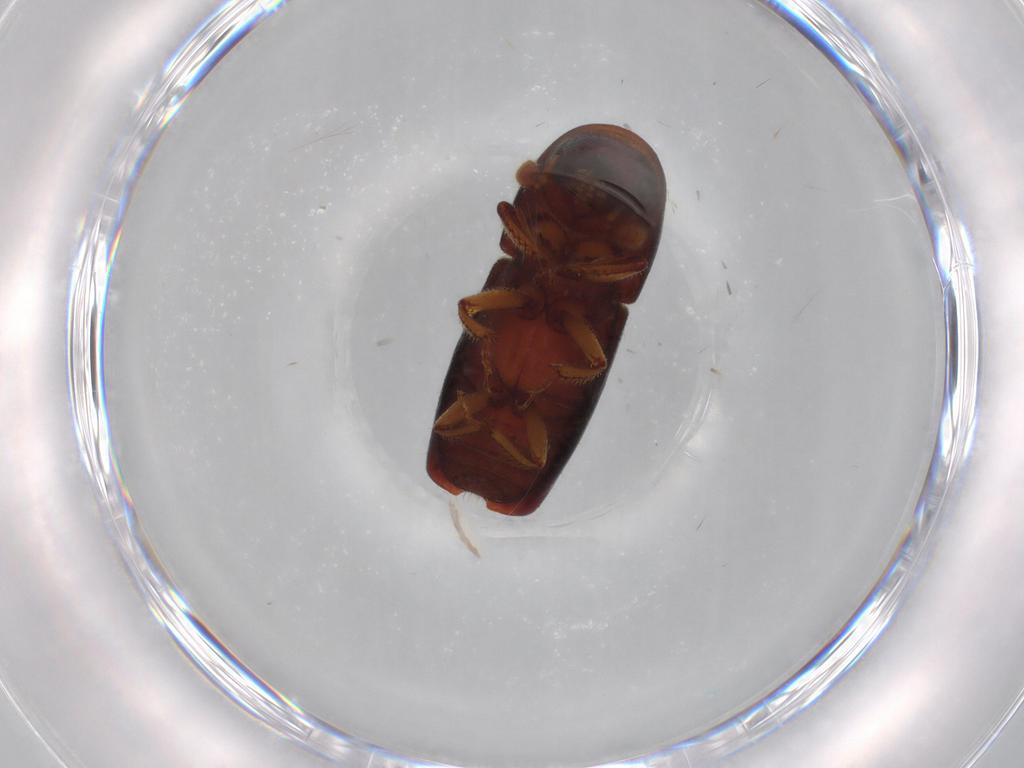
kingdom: Animalia
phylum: Arthropoda
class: Insecta
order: Coleoptera
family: Curculionidae
